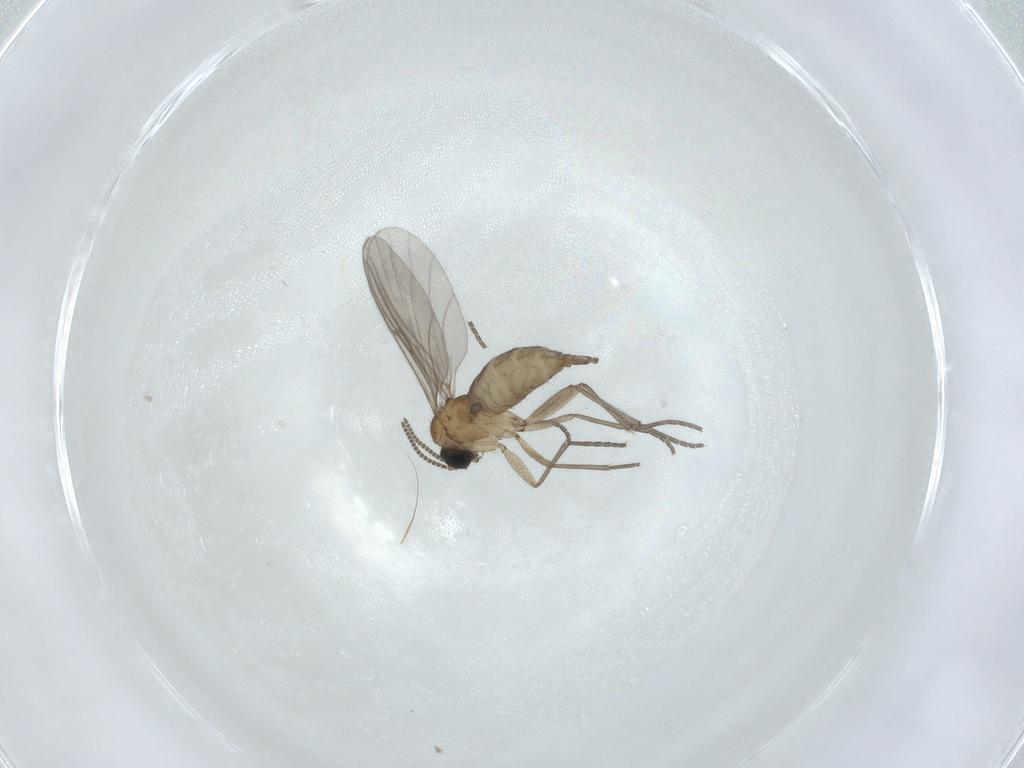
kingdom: Animalia
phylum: Arthropoda
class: Insecta
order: Diptera
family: Sciaridae
